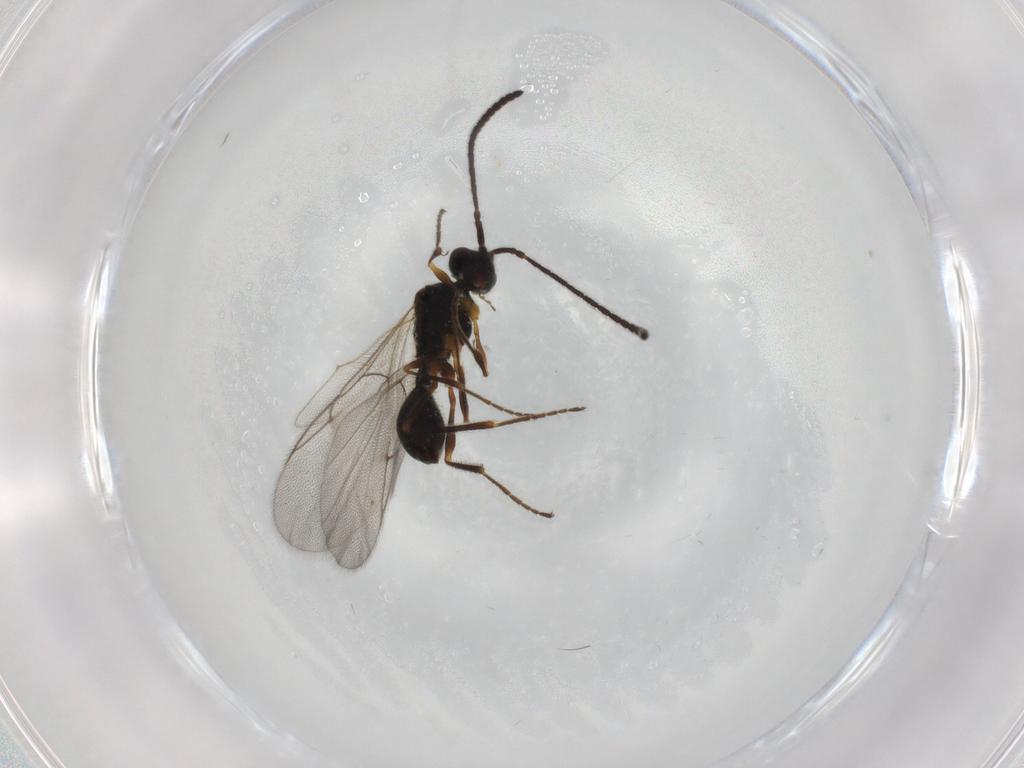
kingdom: Animalia
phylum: Arthropoda
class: Insecta
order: Hymenoptera
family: Diapriidae
